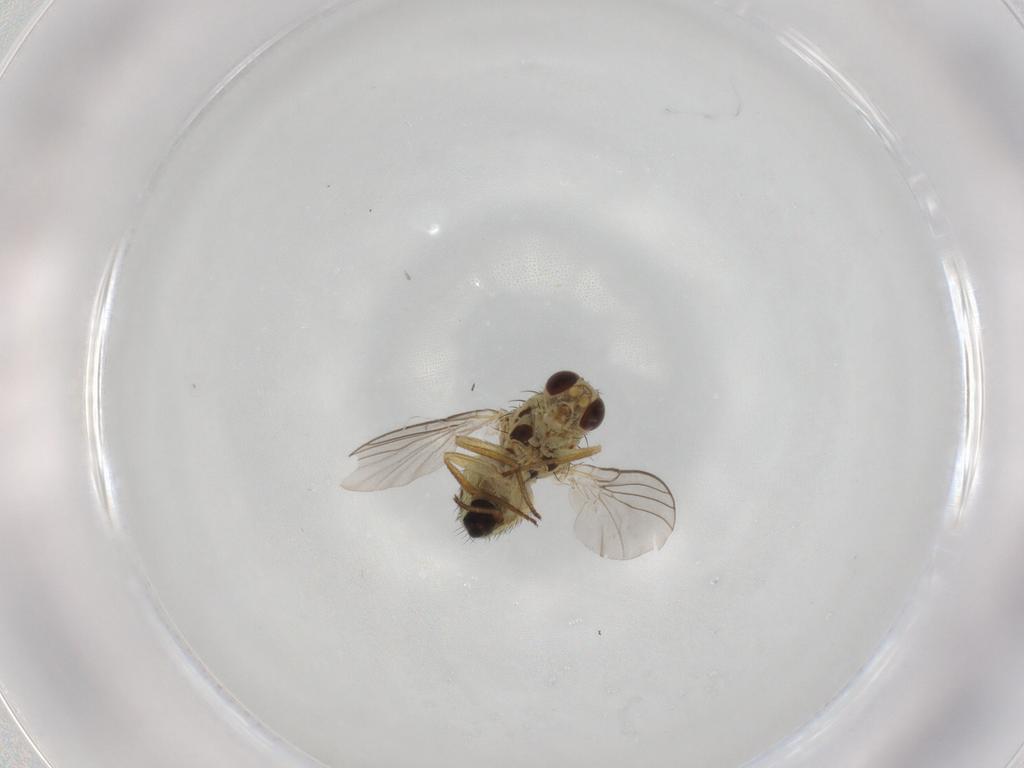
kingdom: Animalia
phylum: Arthropoda
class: Insecta
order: Diptera
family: Agromyzidae
